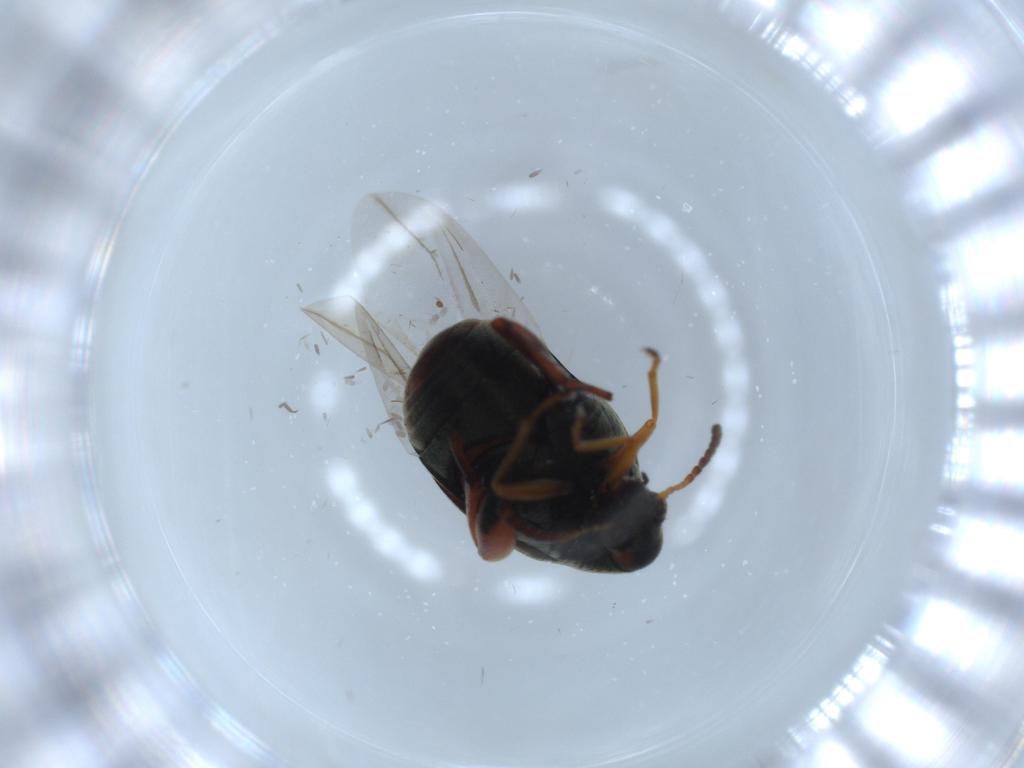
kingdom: Animalia
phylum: Arthropoda
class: Insecta
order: Coleoptera
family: Chrysomelidae
